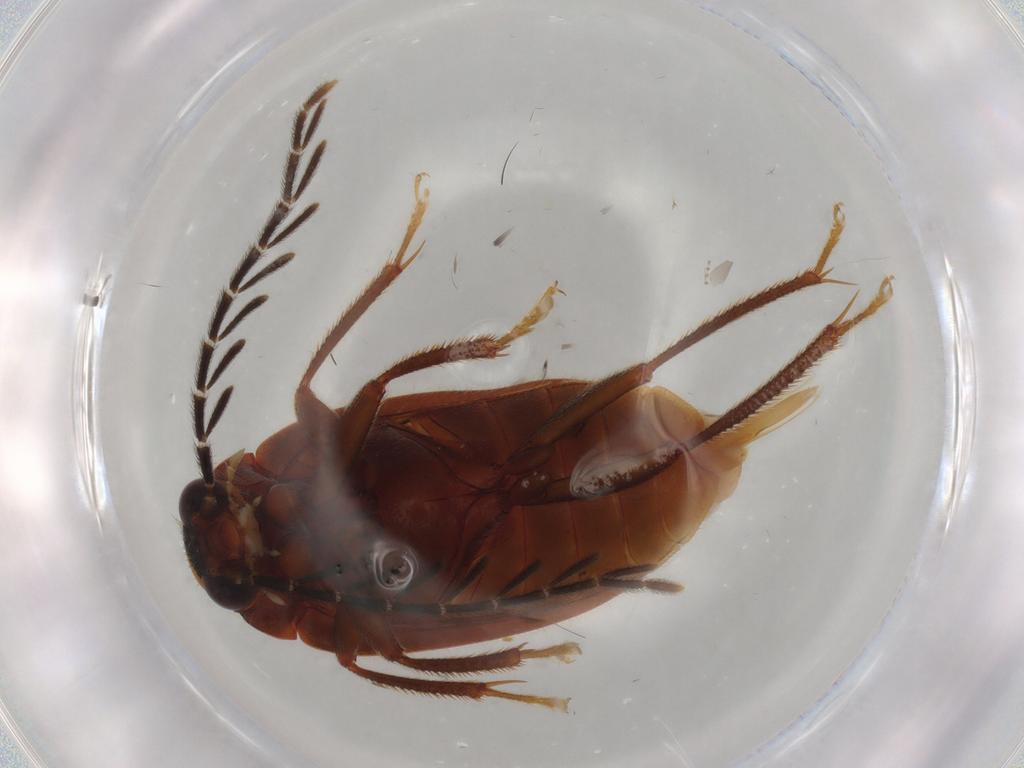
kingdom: Animalia
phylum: Arthropoda
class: Insecta
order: Coleoptera
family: Ptilodactylidae
